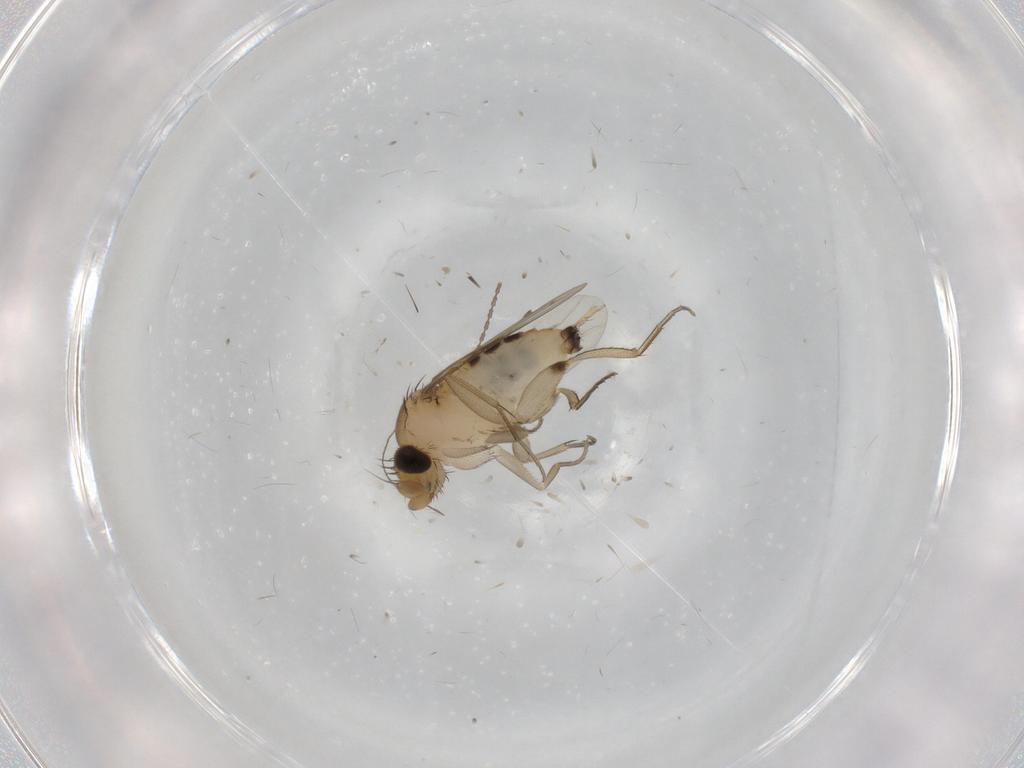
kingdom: Animalia
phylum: Arthropoda
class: Insecta
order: Diptera
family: Phoridae
